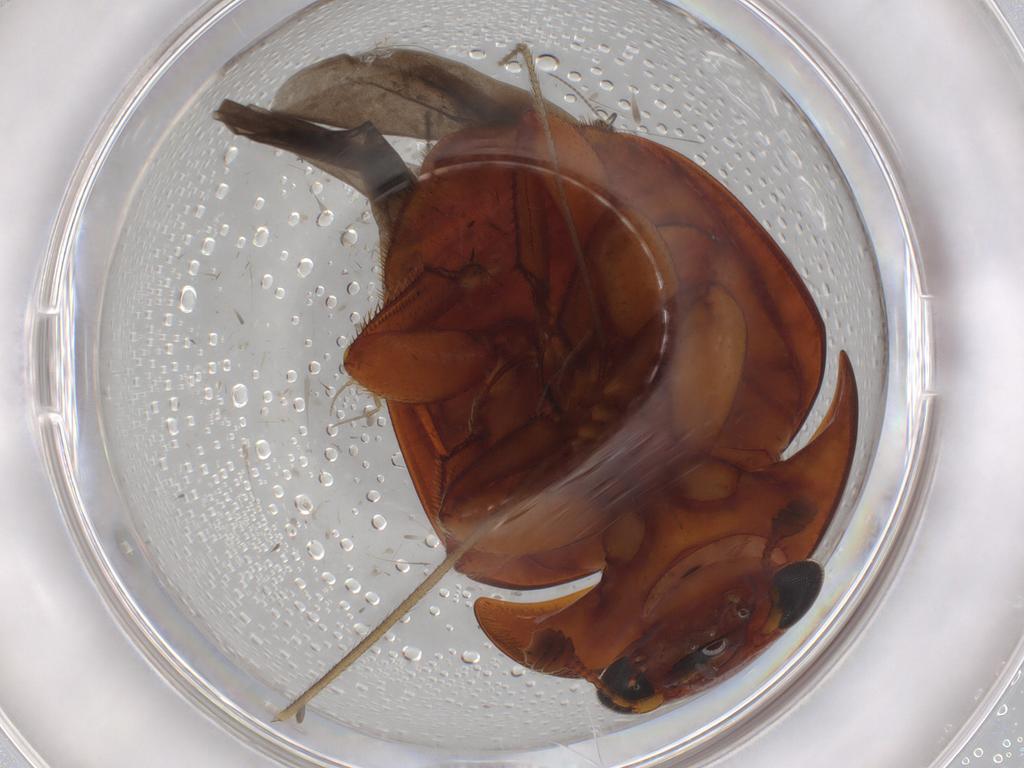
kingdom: Animalia
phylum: Arthropoda
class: Insecta
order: Coleoptera
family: Nitidulidae
